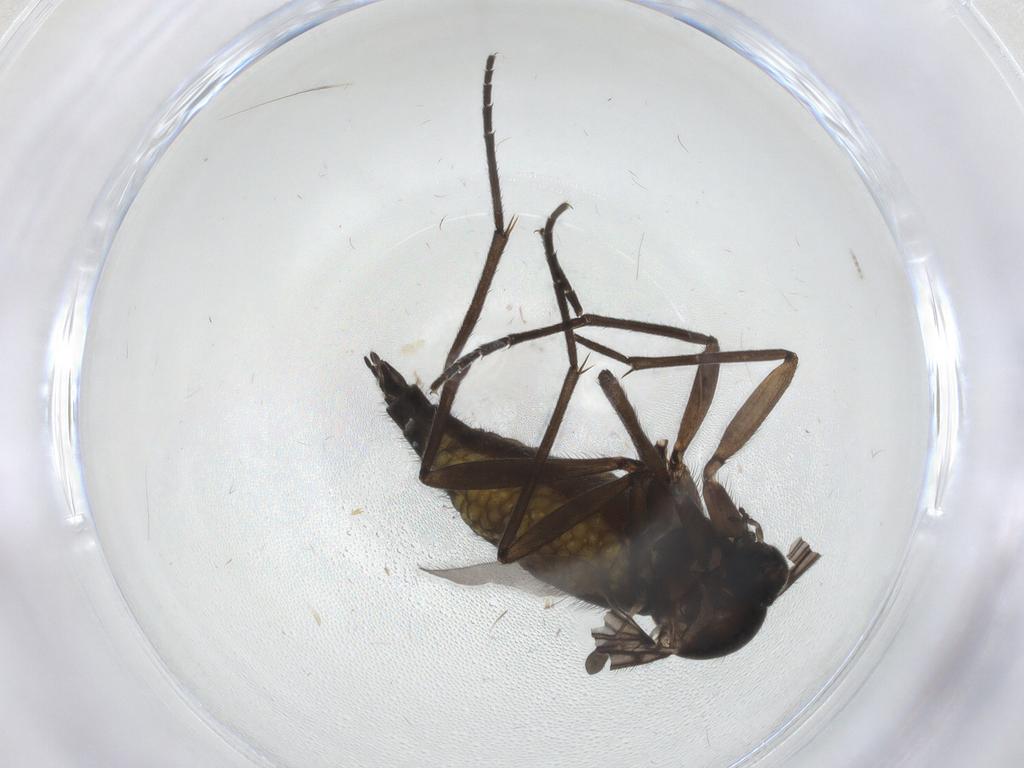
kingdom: Animalia
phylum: Arthropoda
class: Insecta
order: Diptera
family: Sciaridae
